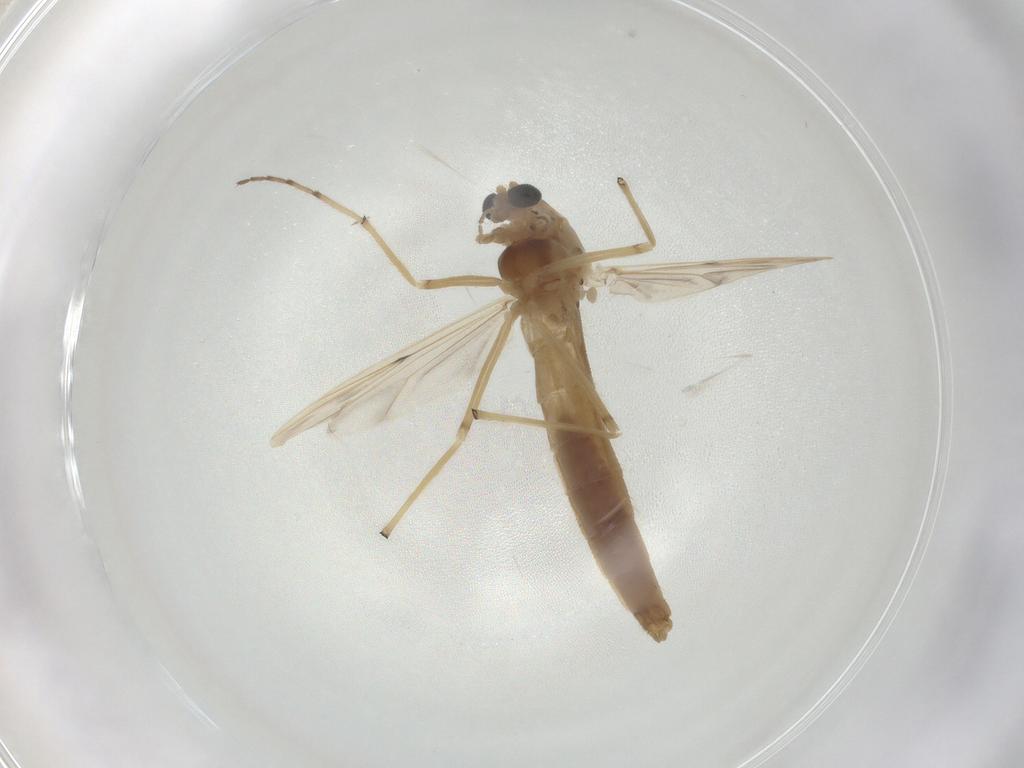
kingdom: Animalia
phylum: Arthropoda
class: Insecta
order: Diptera
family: Chironomidae
